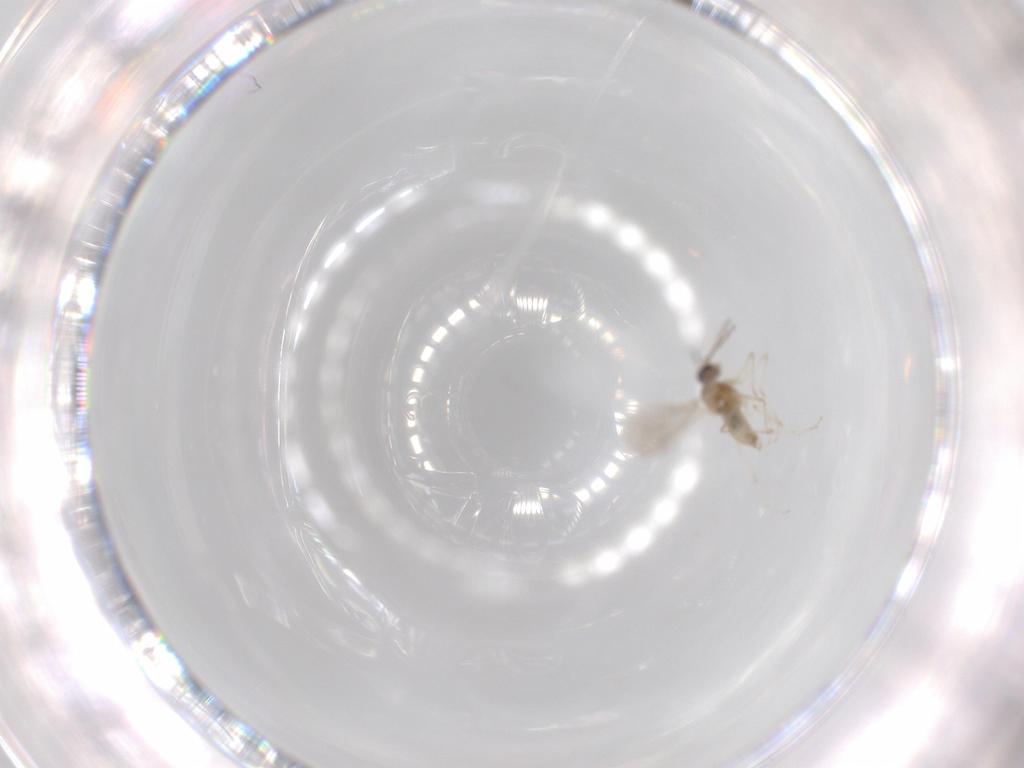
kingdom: Animalia
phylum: Arthropoda
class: Insecta
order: Diptera
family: Cecidomyiidae
